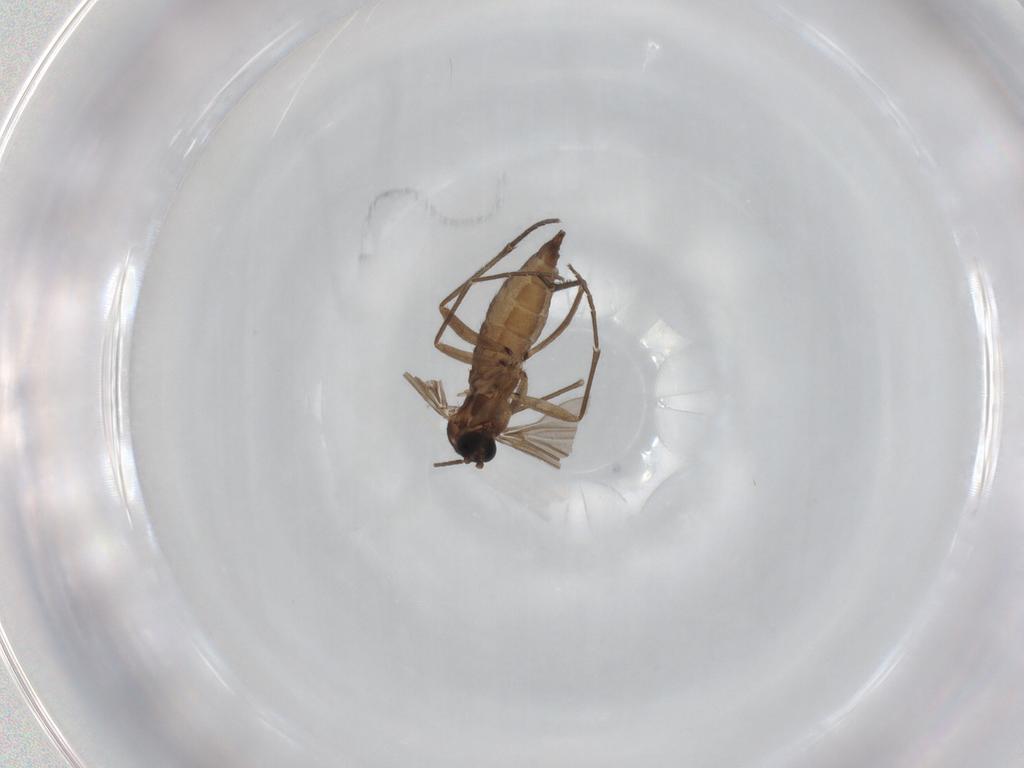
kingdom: Animalia
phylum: Arthropoda
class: Insecta
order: Diptera
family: Sciaridae
